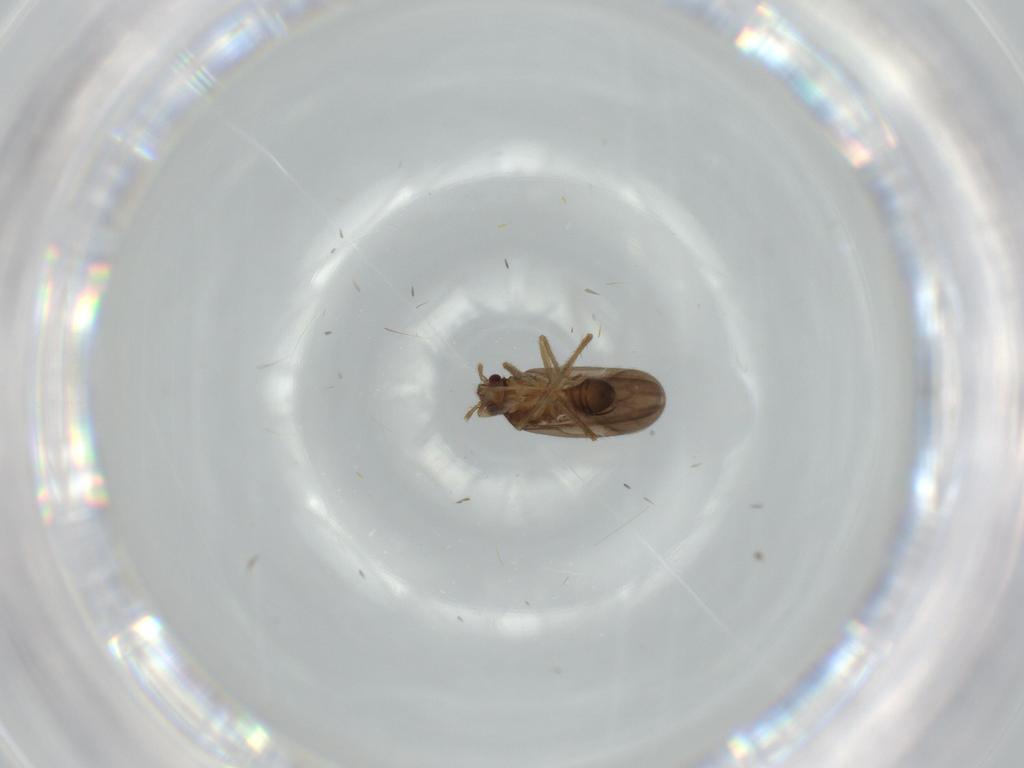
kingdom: Animalia
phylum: Arthropoda
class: Insecta
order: Hemiptera
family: Ceratocombidae
